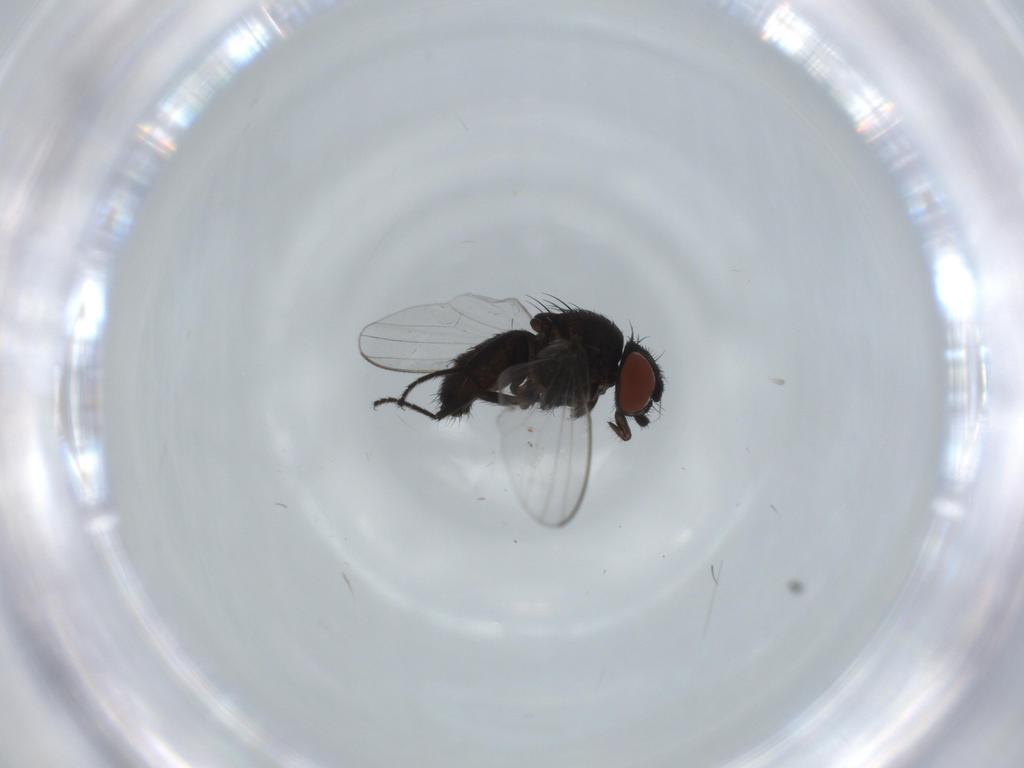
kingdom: Animalia
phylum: Arthropoda
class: Insecta
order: Diptera
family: Sciaridae
